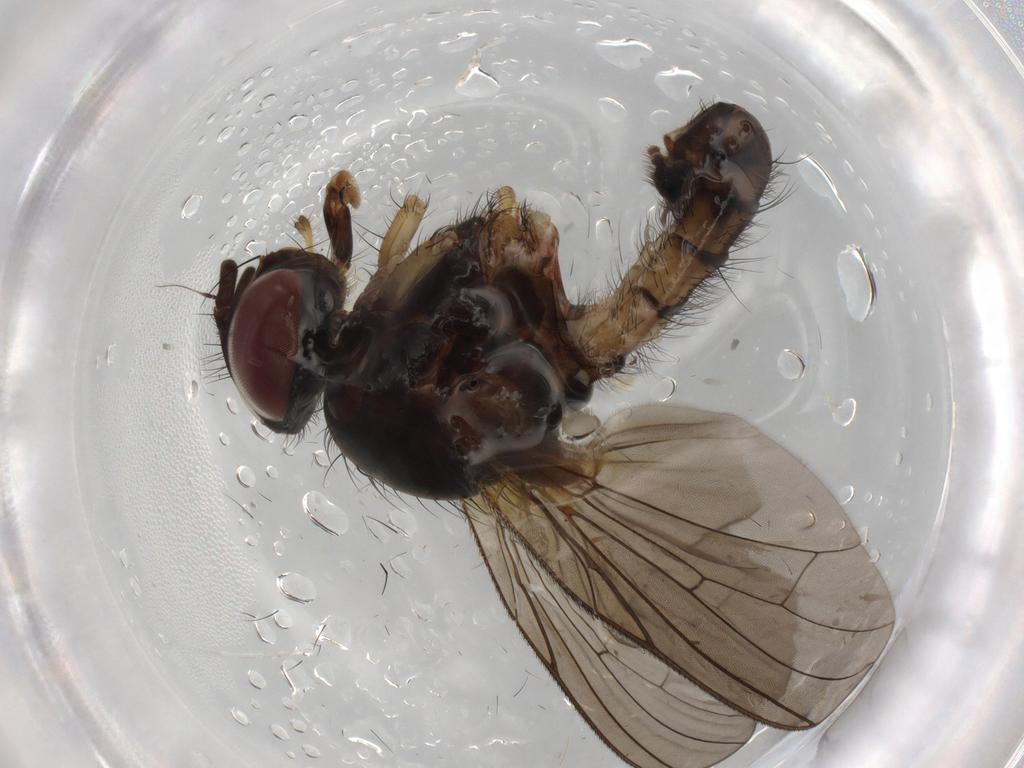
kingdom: Animalia
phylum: Arthropoda
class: Insecta
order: Diptera
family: Anthomyiidae
